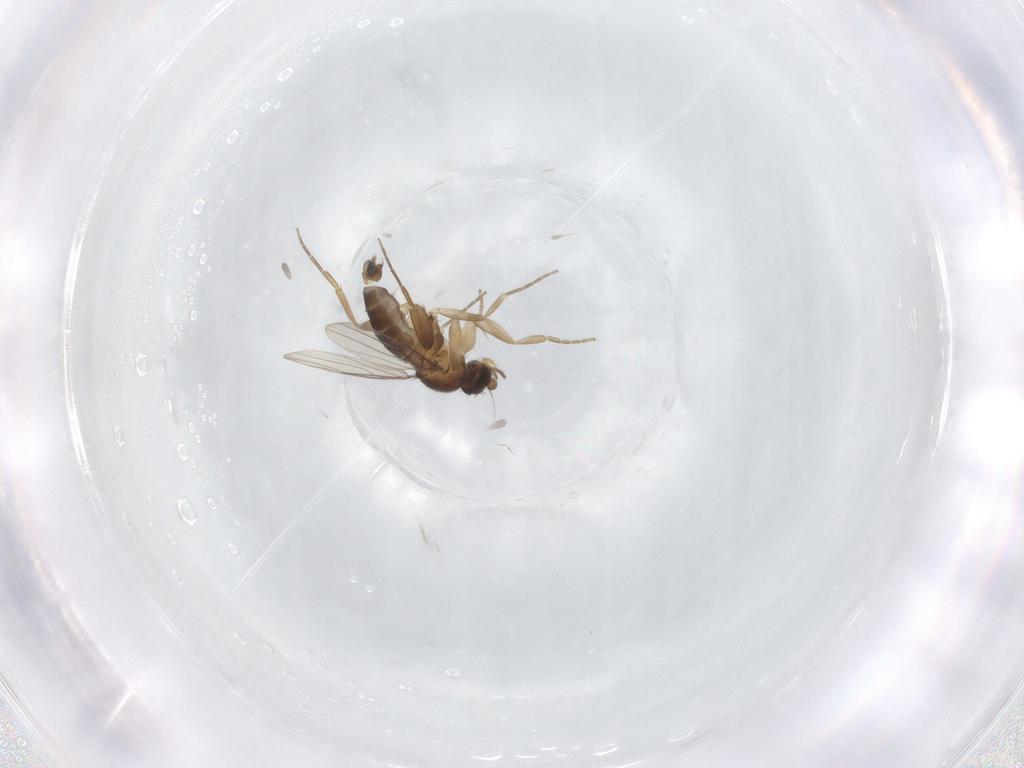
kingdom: Animalia
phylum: Arthropoda
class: Insecta
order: Diptera
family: Phoridae
